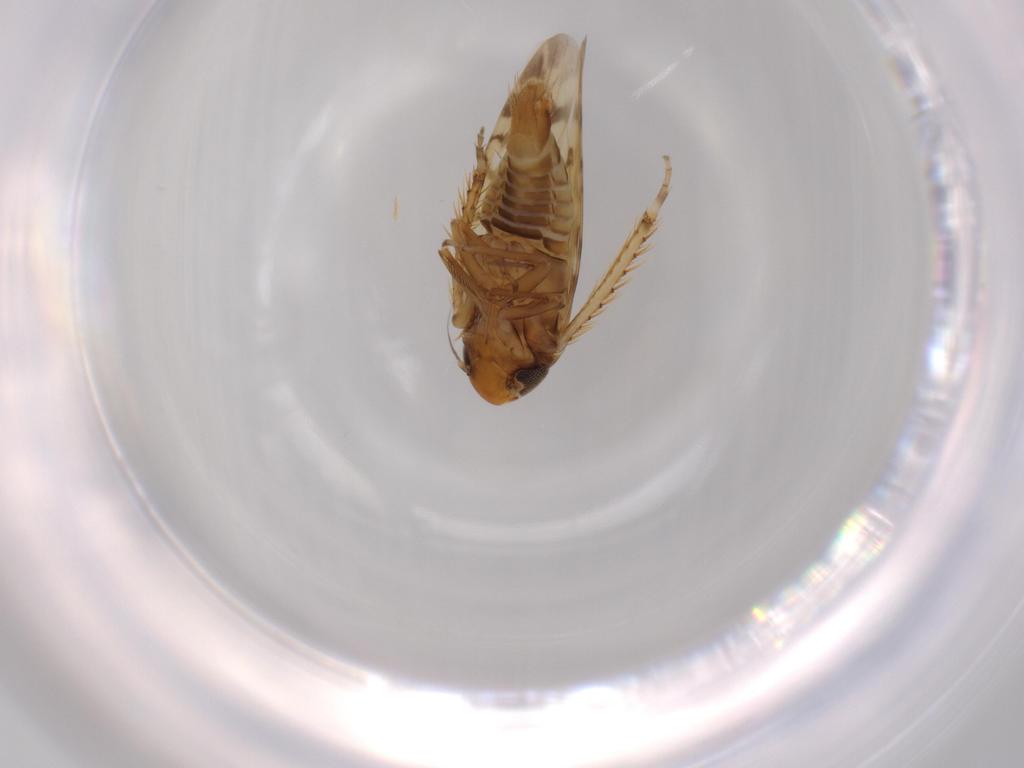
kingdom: Animalia
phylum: Arthropoda
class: Insecta
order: Hemiptera
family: Cicadellidae
